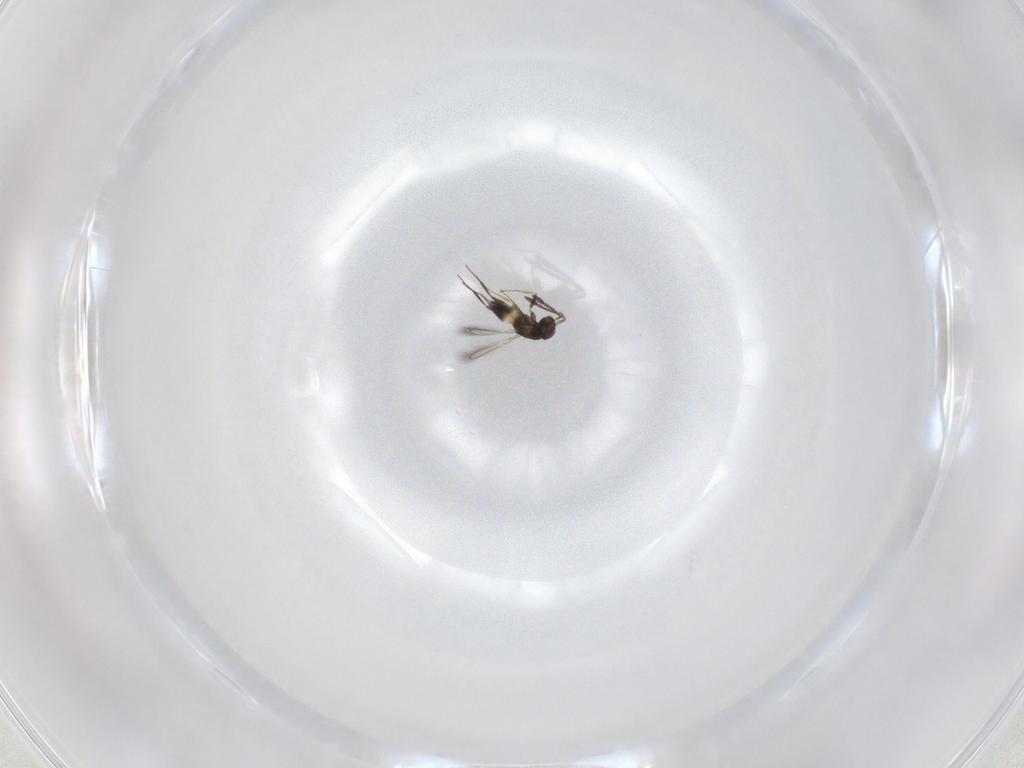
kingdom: Animalia
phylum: Arthropoda
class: Insecta
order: Hymenoptera
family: Mymaridae
